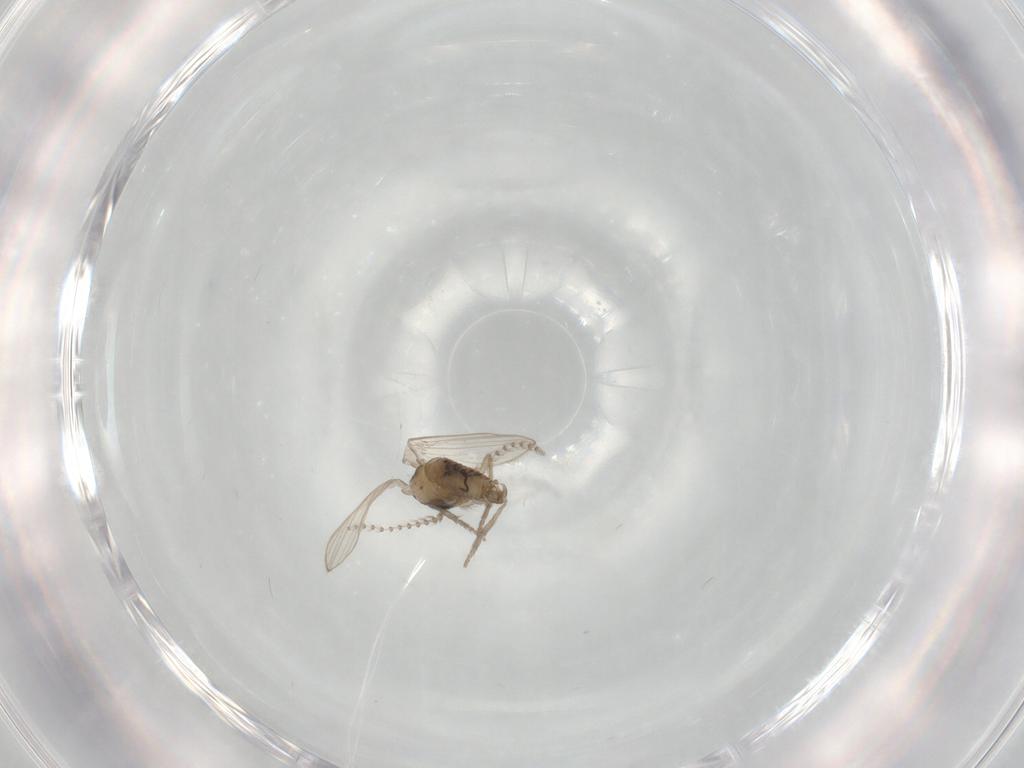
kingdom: Animalia
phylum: Arthropoda
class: Insecta
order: Diptera
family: Psychodidae
